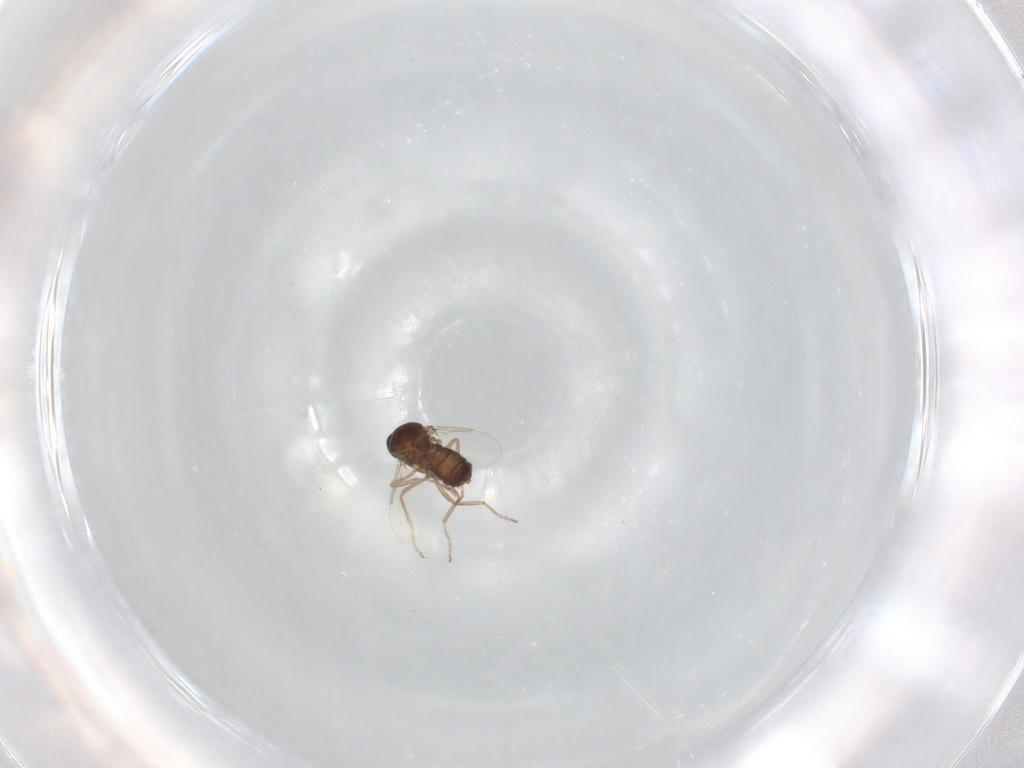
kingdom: Animalia
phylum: Arthropoda
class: Insecta
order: Diptera
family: Ceratopogonidae
